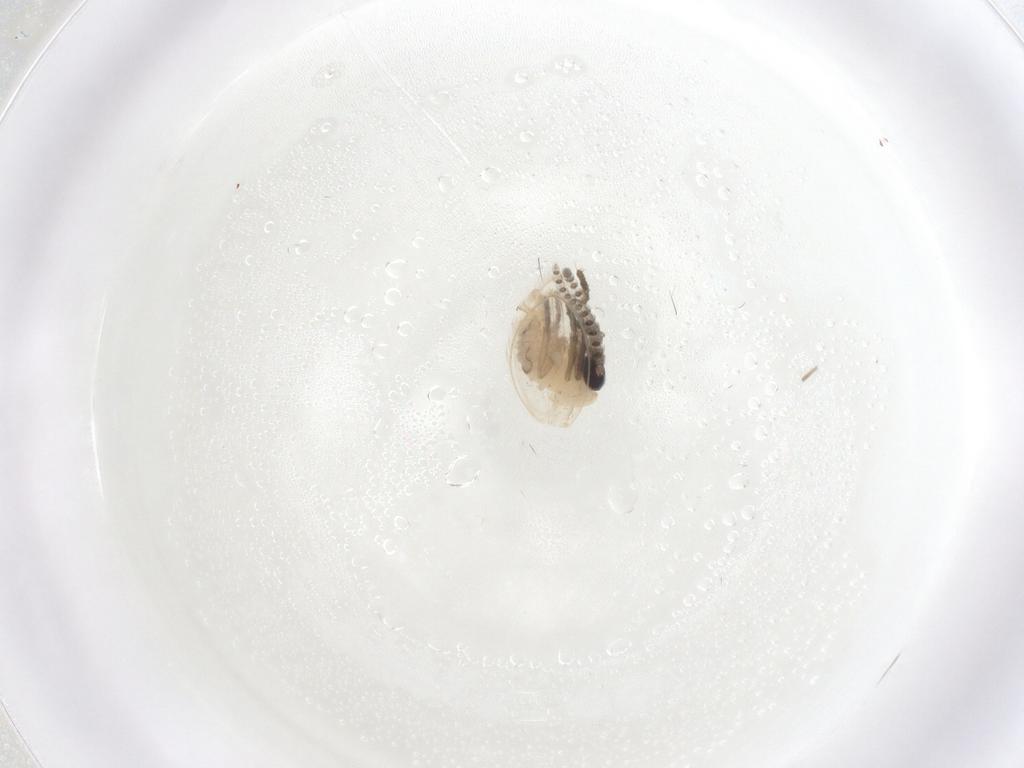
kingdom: Animalia
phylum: Arthropoda
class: Insecta
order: Diptera
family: Psychodidae
